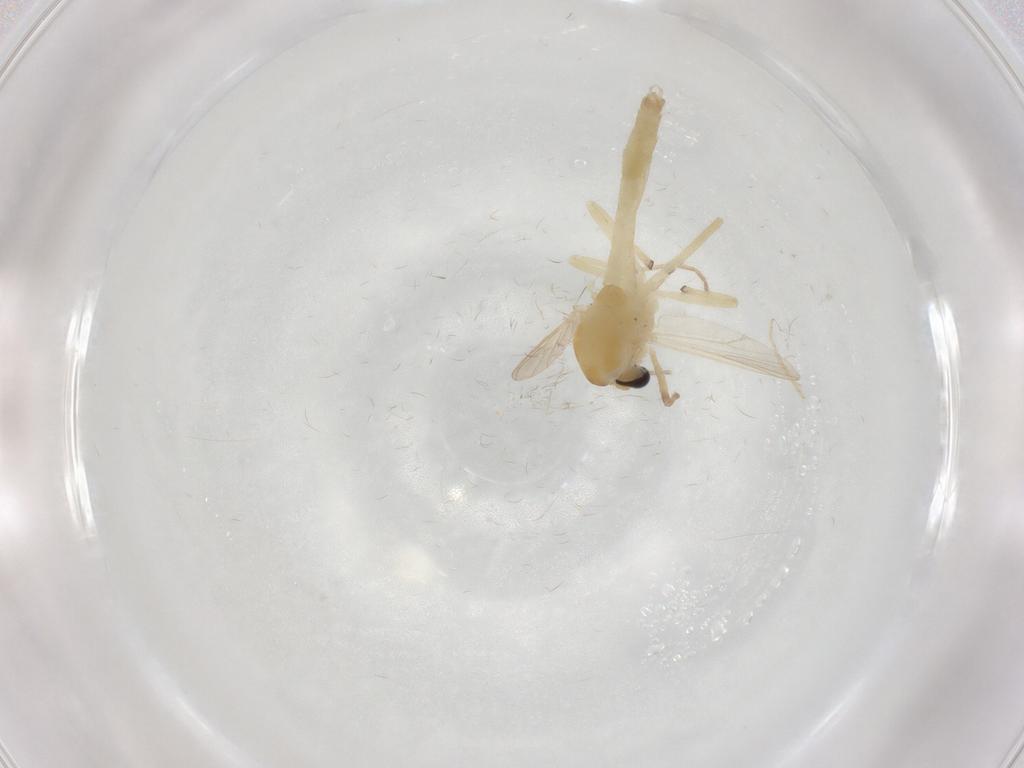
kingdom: Animalia
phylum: Arthropoda
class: Insecta
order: Diptera
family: Chironomidae
